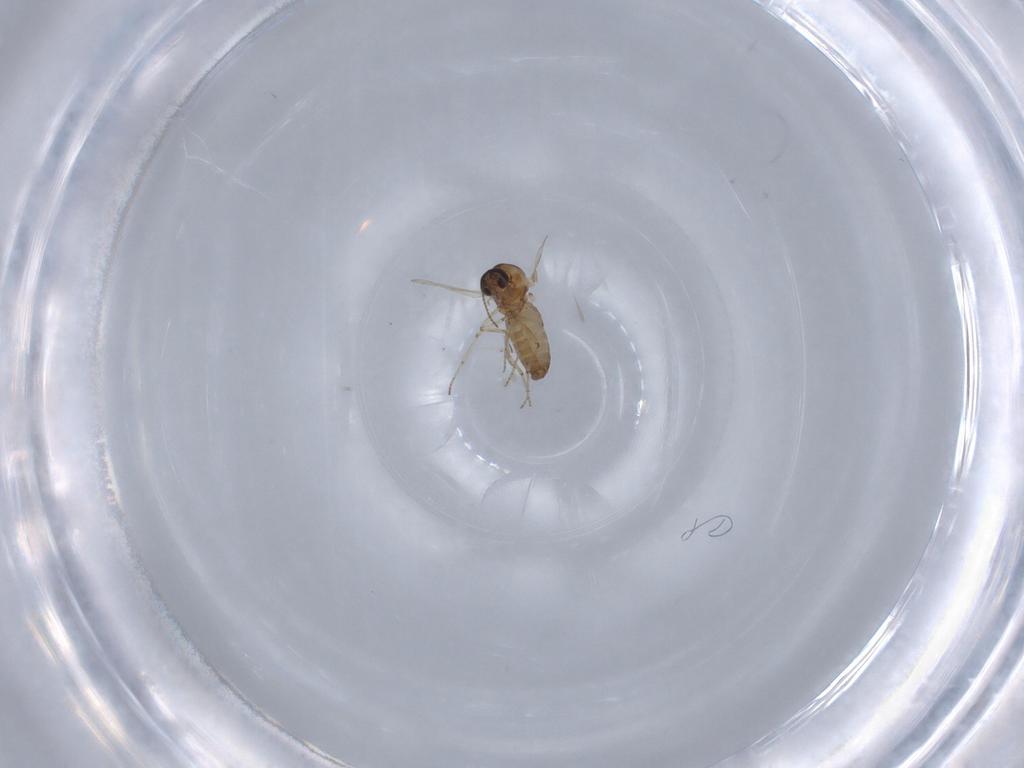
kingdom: Animalia
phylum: Arthropoda
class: Insecta
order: Diptera
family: Ceratopogonidae
